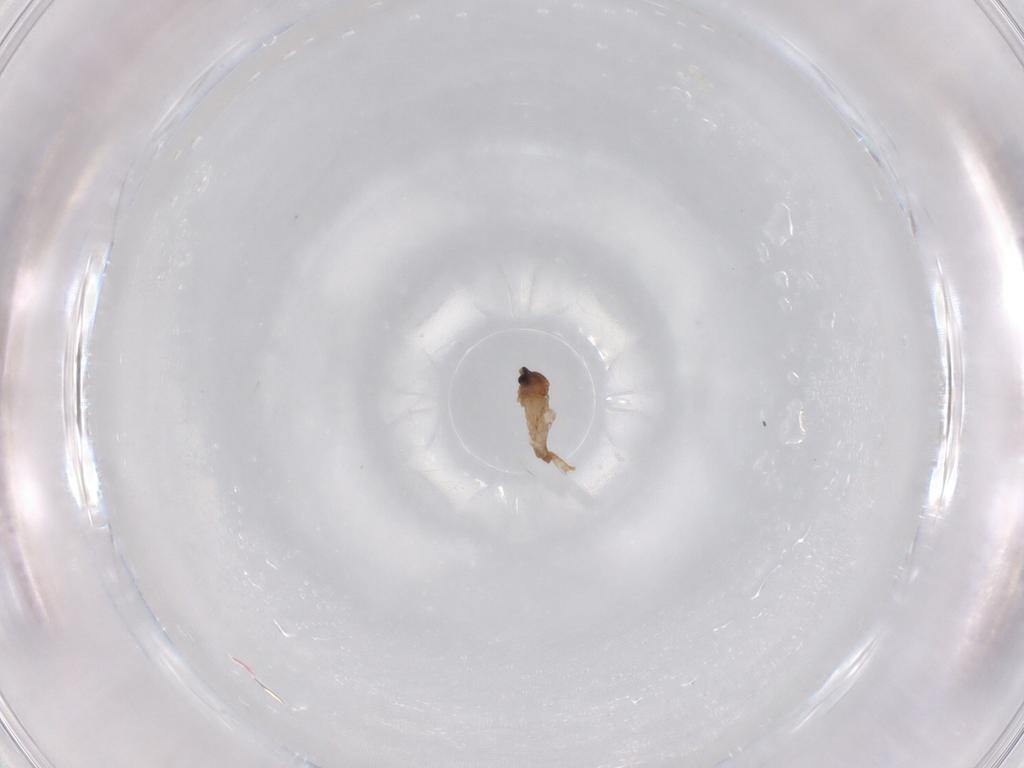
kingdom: Animalia
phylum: Arthropoda
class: Insecta
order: Diptera
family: Cecidomyiidae
